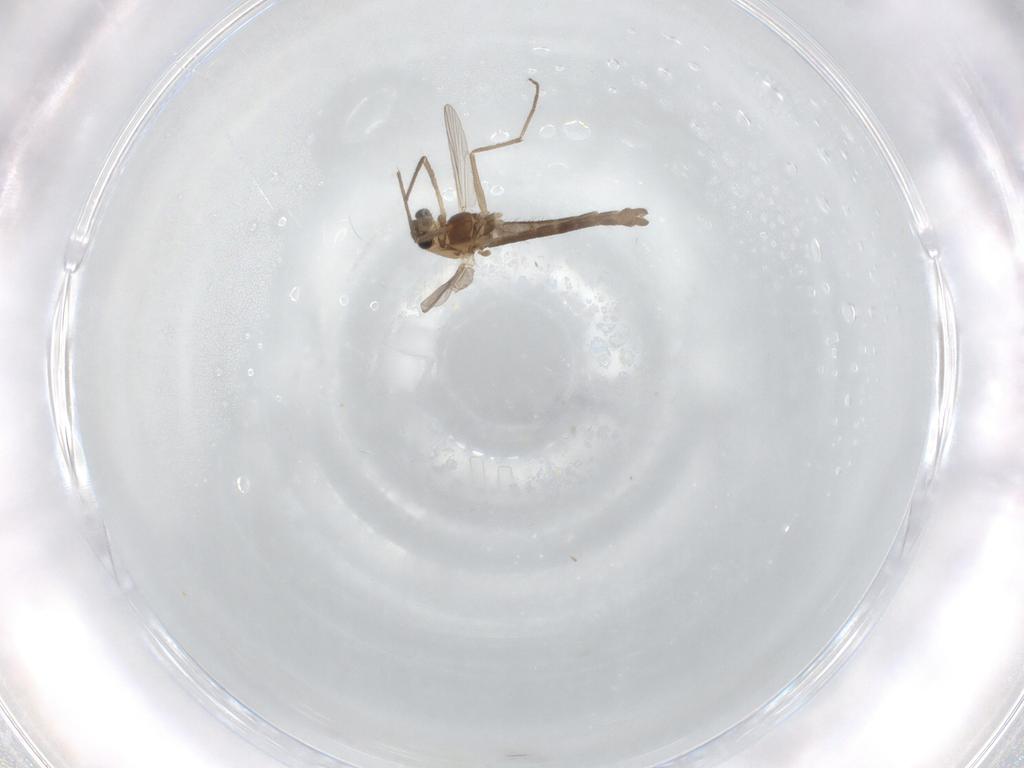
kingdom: Animalia
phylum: Arthropoda
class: Insecta
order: Diptera
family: Chironomidae
